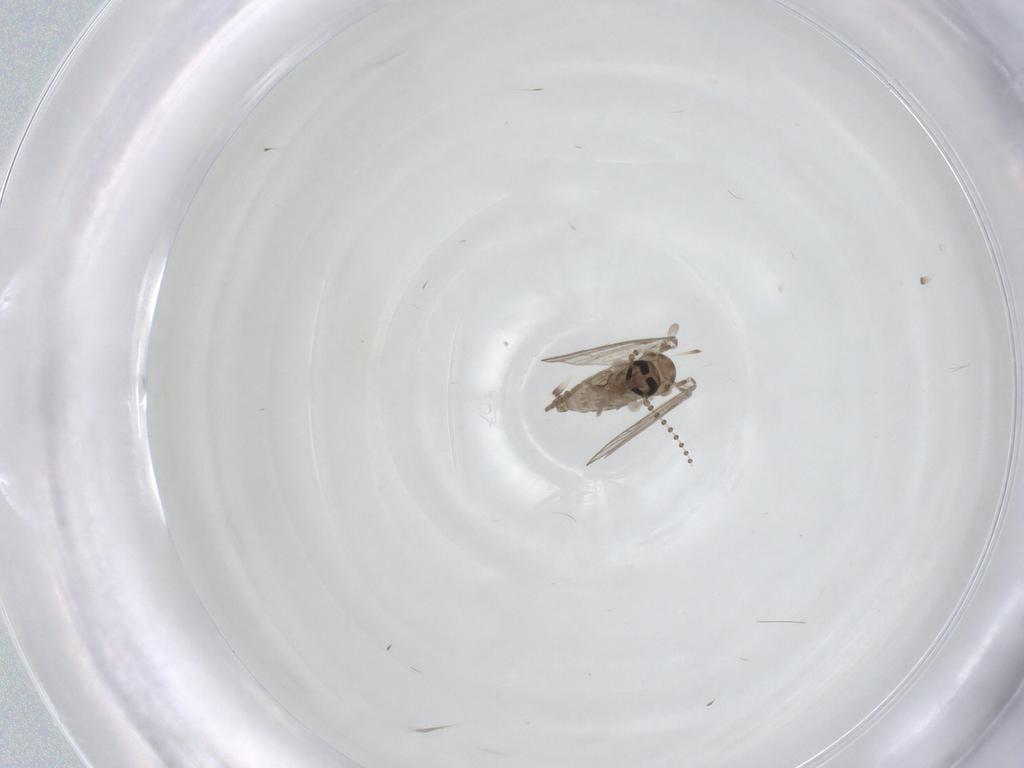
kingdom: Animalia
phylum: Arthropoda
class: Insecta
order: Diptera
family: Psychodidae
